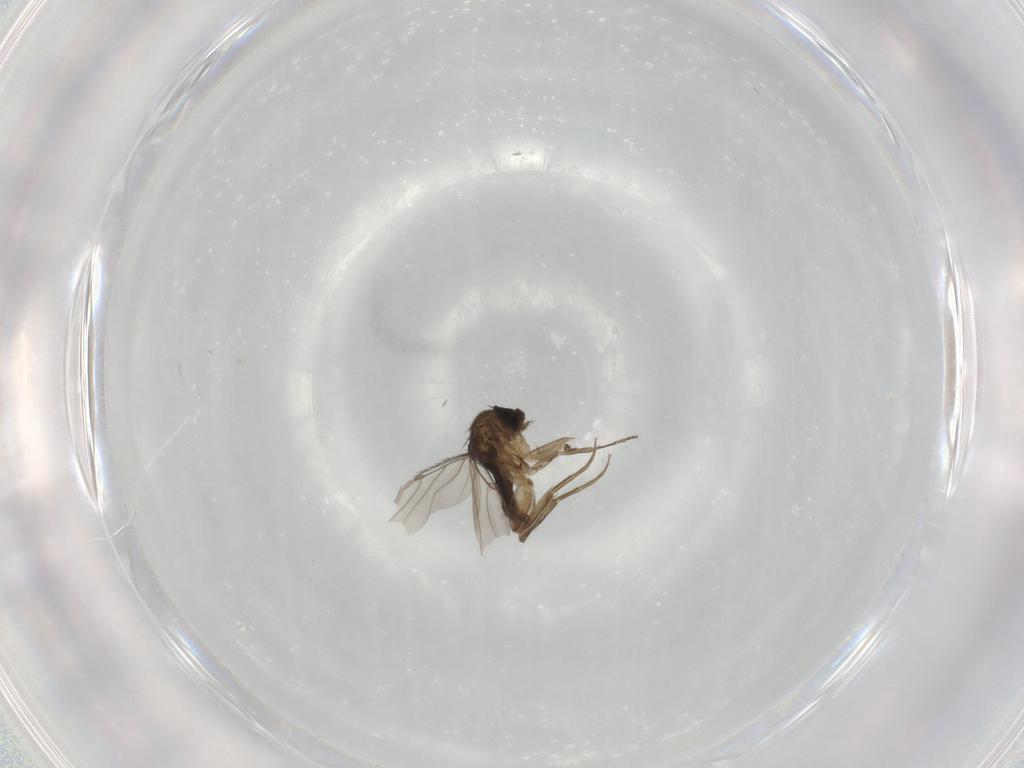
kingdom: Animalia
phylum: Arthropoda
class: Insecta
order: Diptera
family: Phoridae
